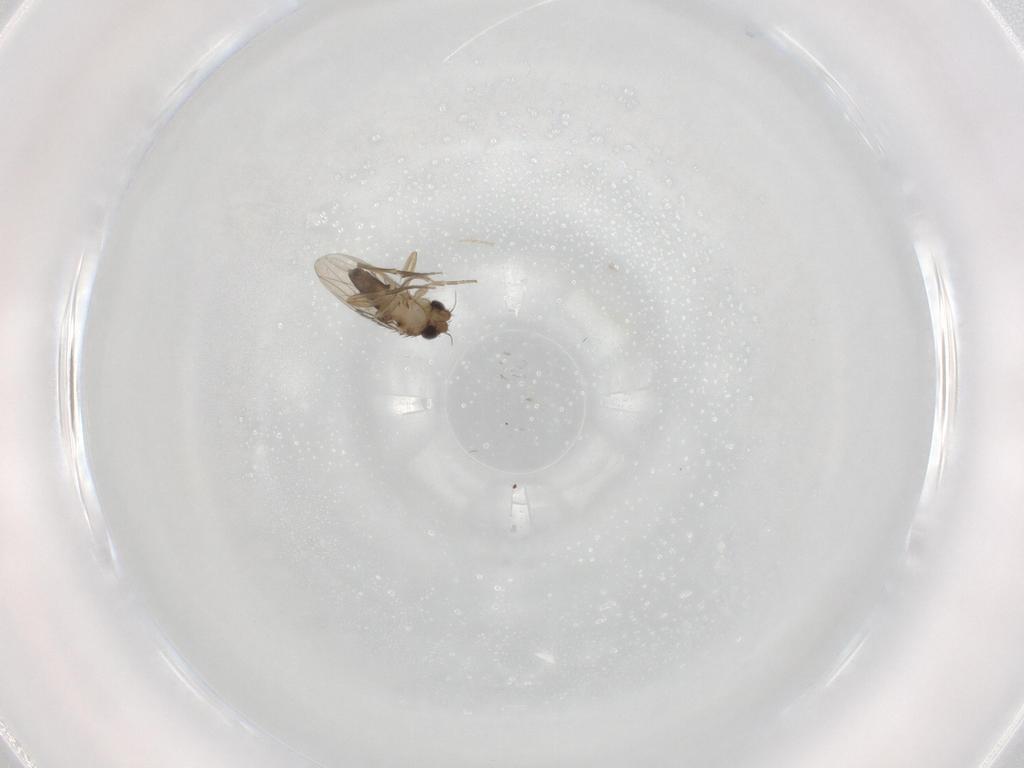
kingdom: Animalia
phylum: Arthropoda
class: Insecta
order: Diptera
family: Phoridae
